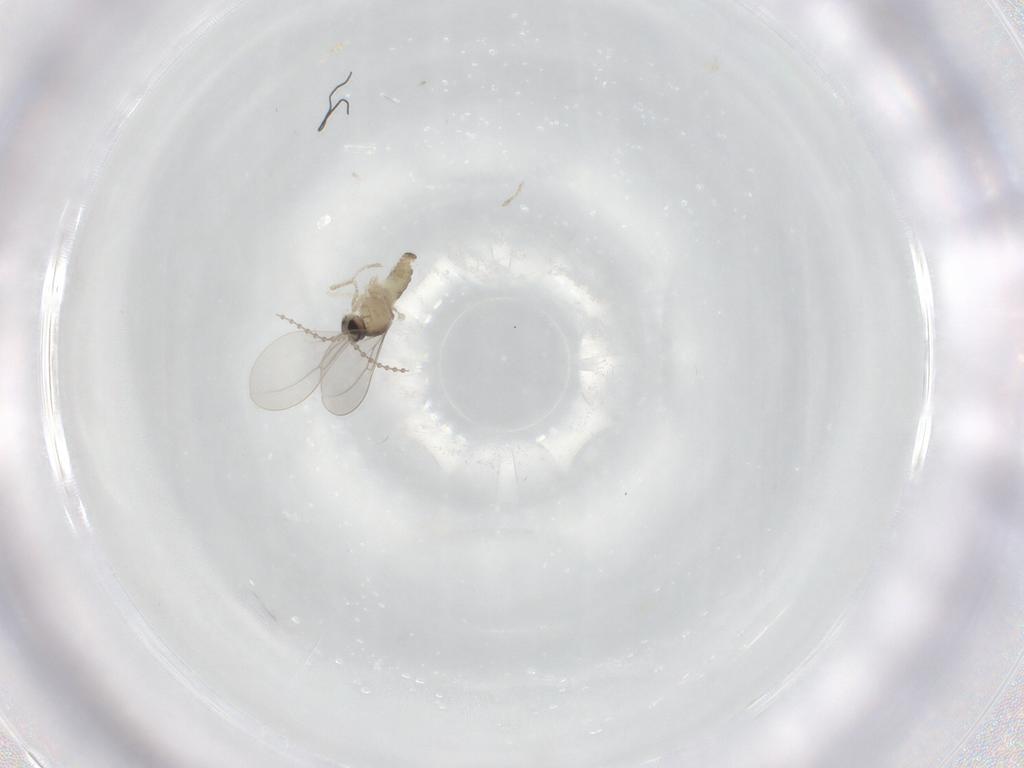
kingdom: Animalia
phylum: Arthropoda
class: Insecta
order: Diptera
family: Cecidomyiidae
